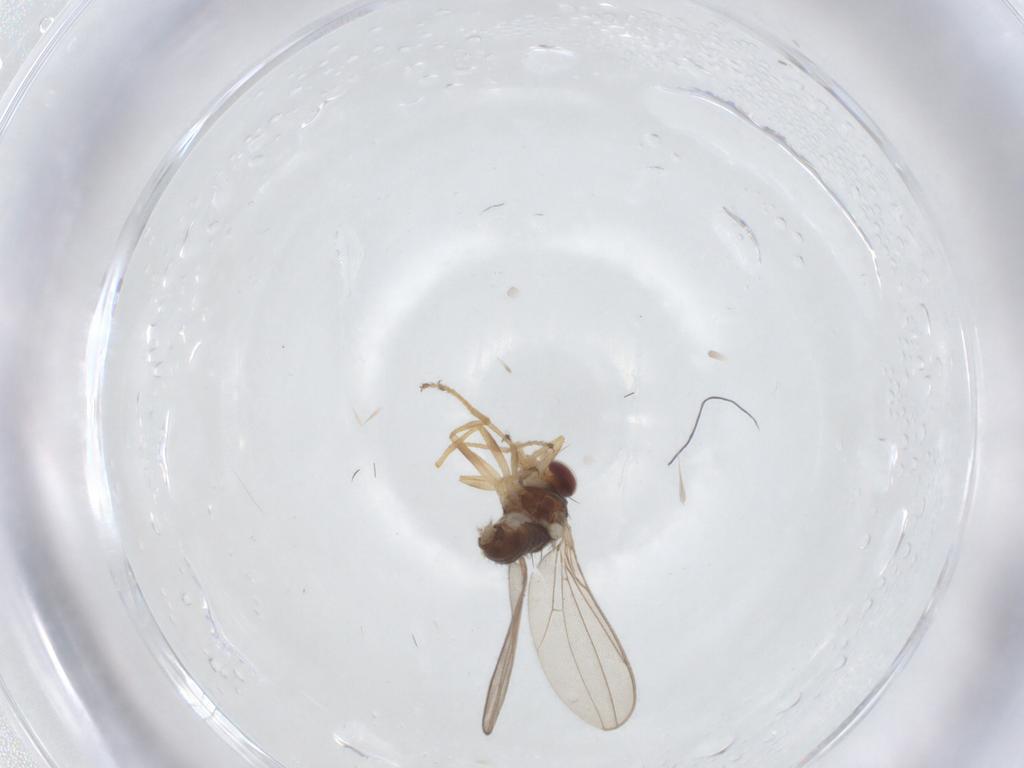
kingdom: Animalia
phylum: Arthropoda
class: Insecta
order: Diptera
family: Asteiidae
